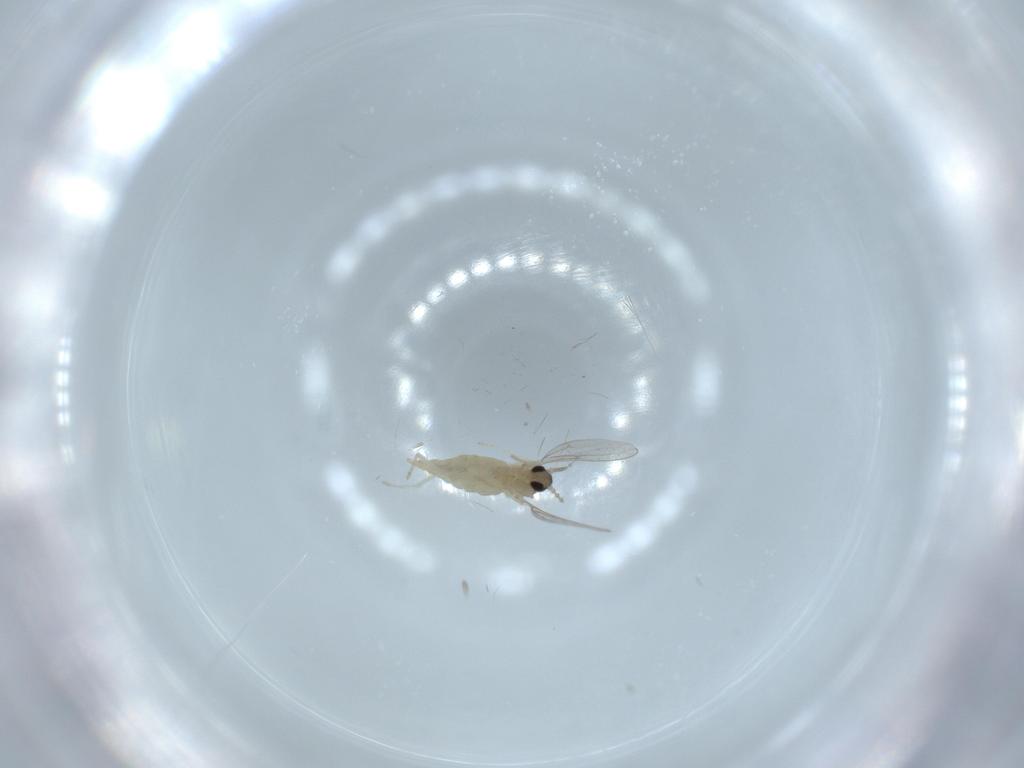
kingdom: Animalia
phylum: Arthropoda
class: Insecta
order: Diptera
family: Cecidomyiidae
